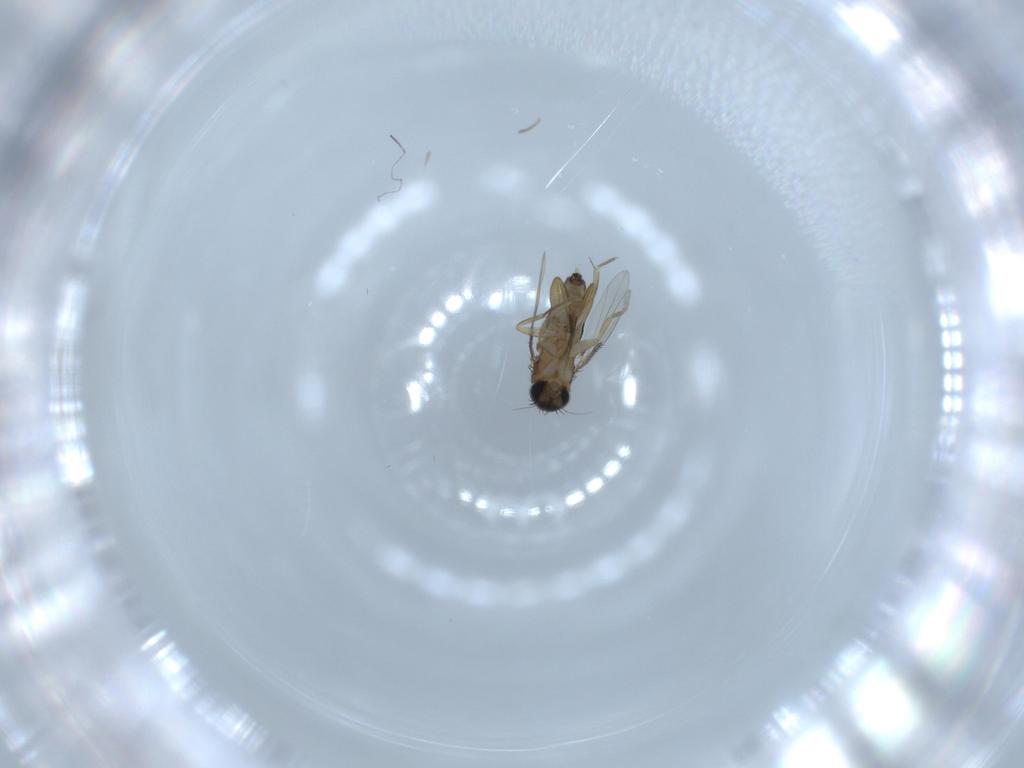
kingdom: Animalia
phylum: Arthropoda
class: Insecta
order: Diptera
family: Phoridae
